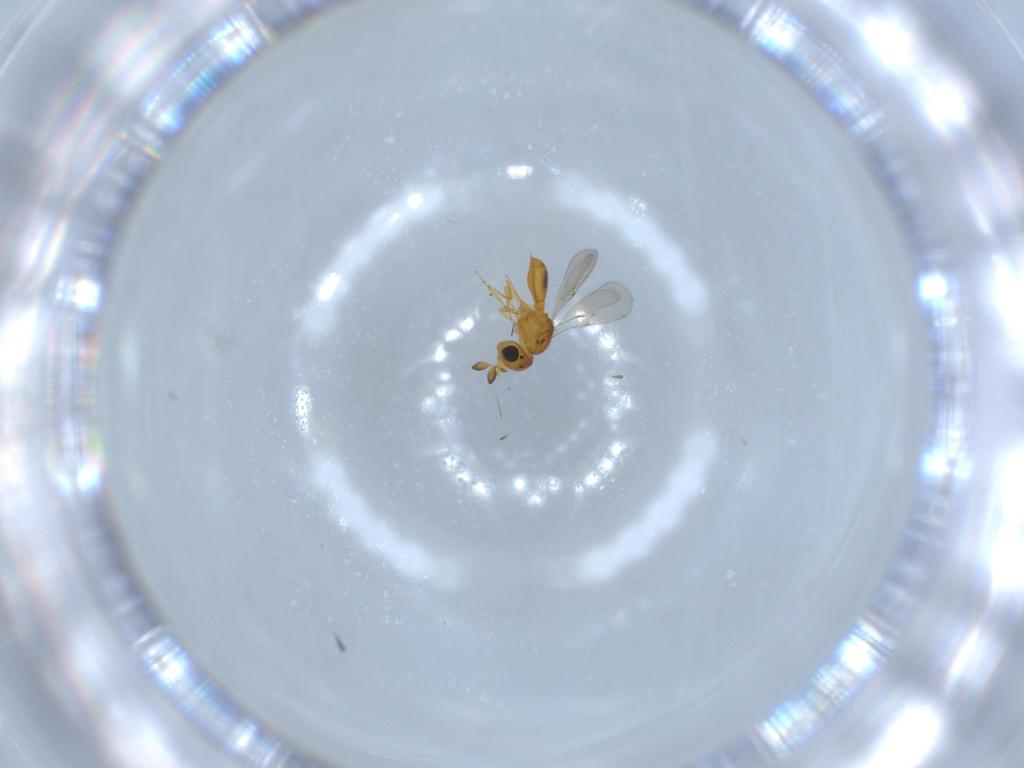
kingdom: Animalia
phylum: Arthropoda
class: Insecta
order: Hymenoptera
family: Scelionidae
